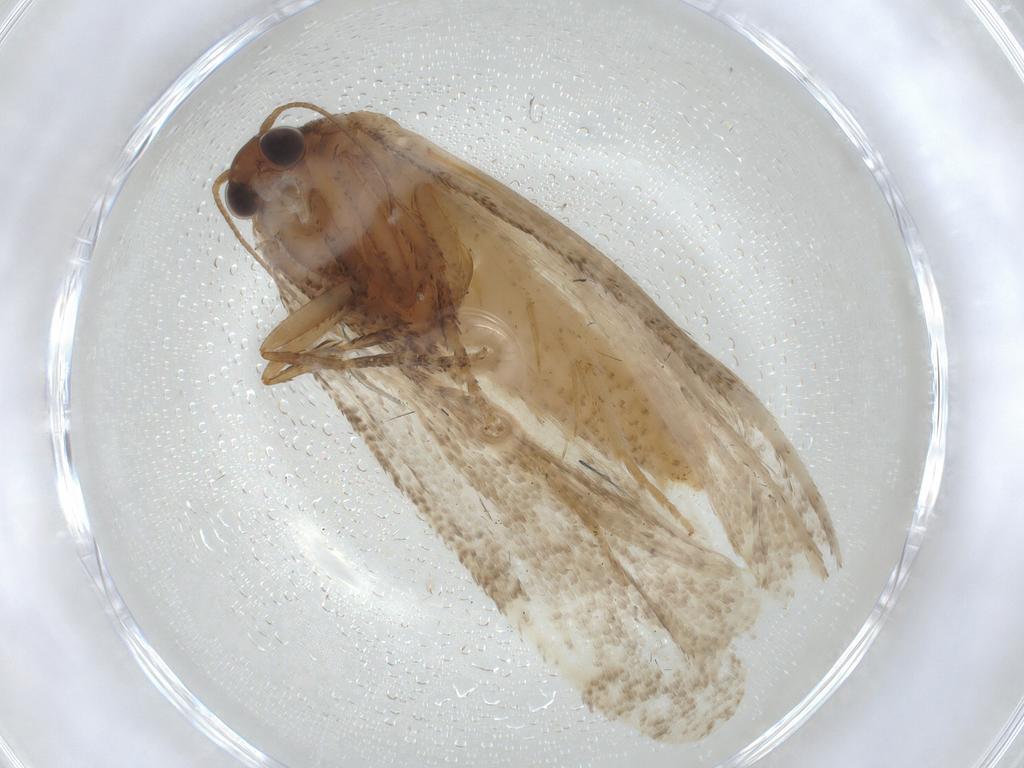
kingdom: Animalia
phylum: Arthropoda
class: Insecta
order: Lepidoptera
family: Tortricidae
